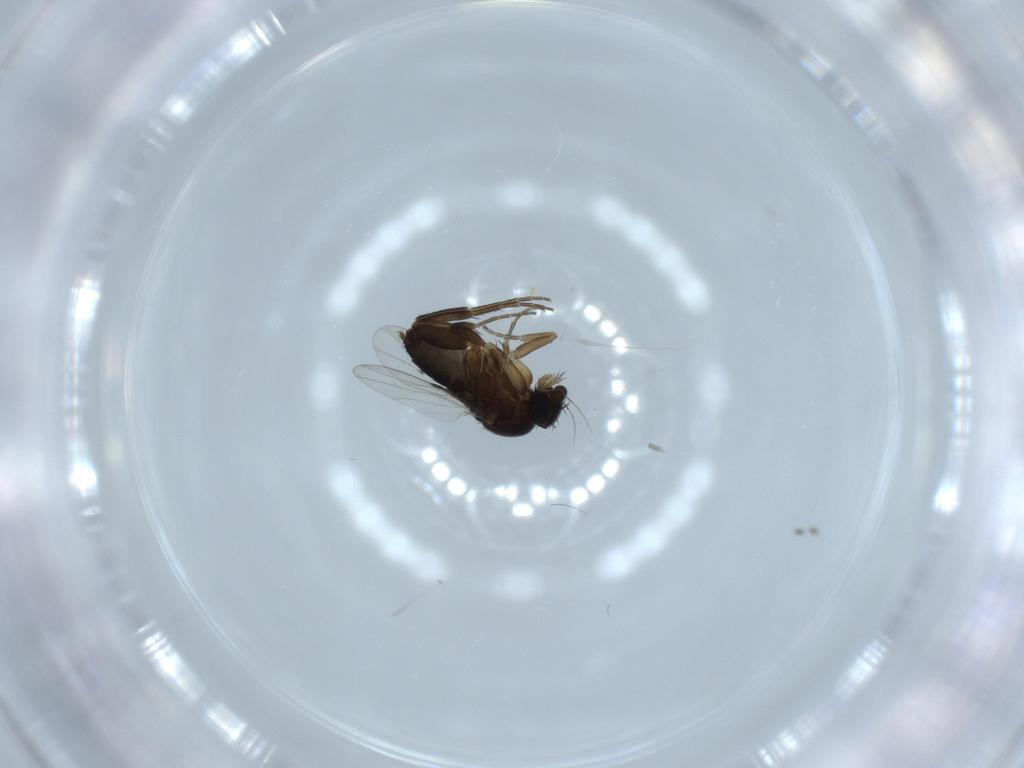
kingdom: Animalia
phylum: Arthropoda
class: Insecta
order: Diptera
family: Phoridae
